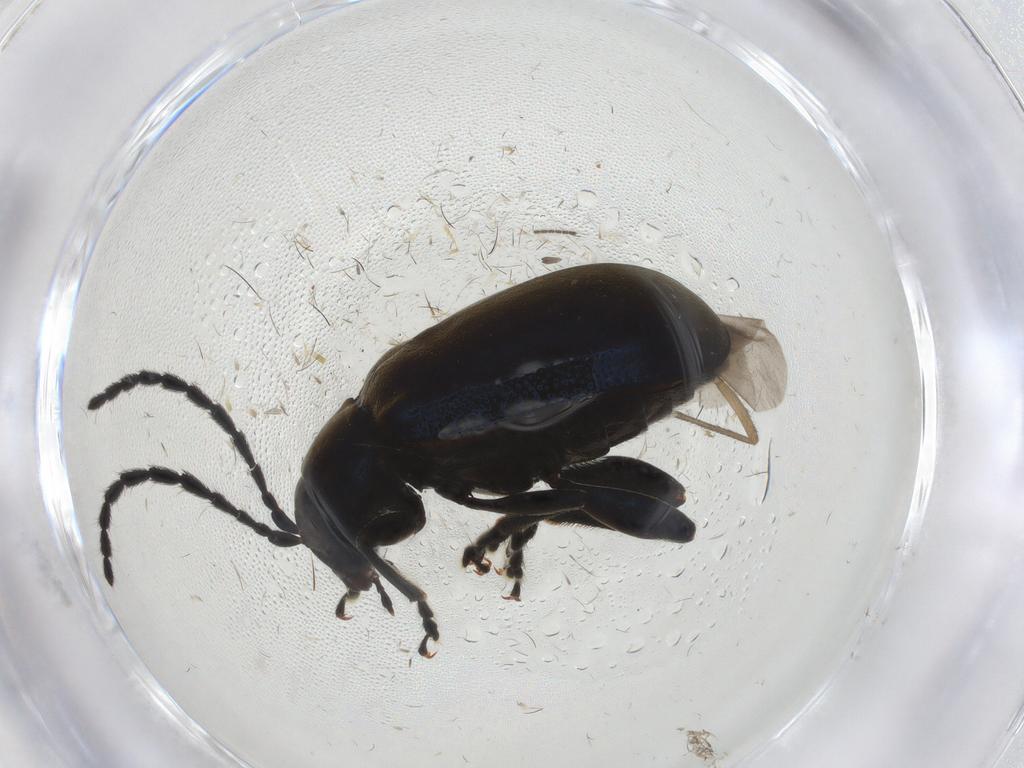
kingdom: Animalia
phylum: Arthropoda
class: Insecta
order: Coleoptera
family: Chrysomelidae
